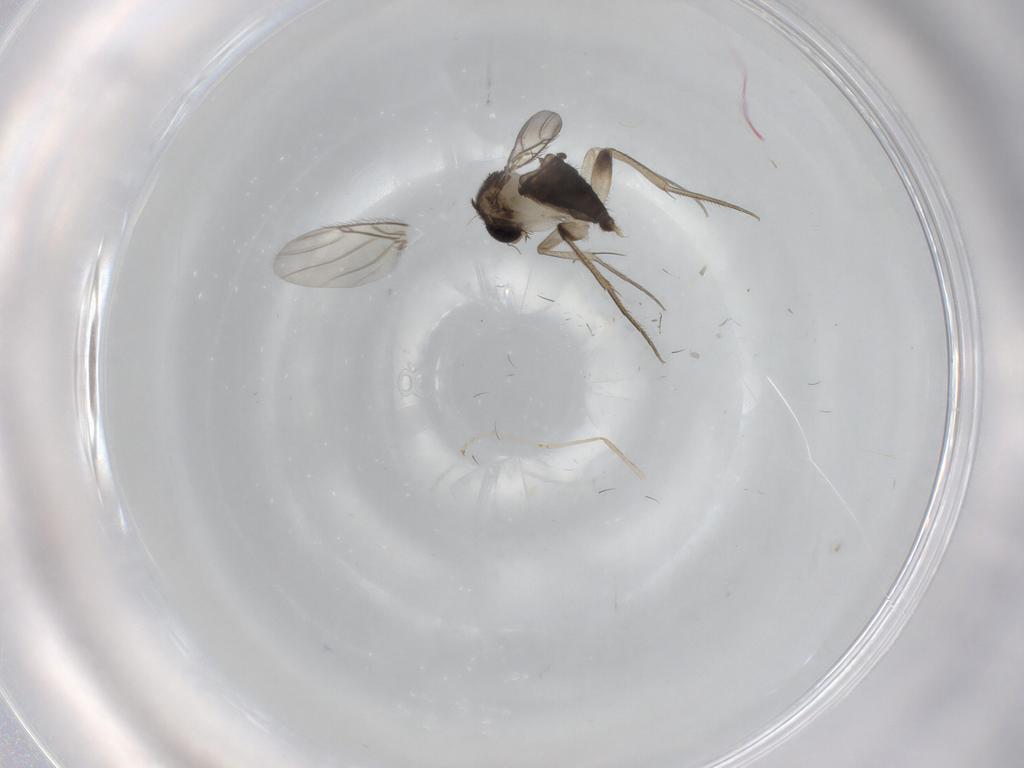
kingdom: Animalia
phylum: Arthropoda
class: Insecta
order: Diptera
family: Phoridae
